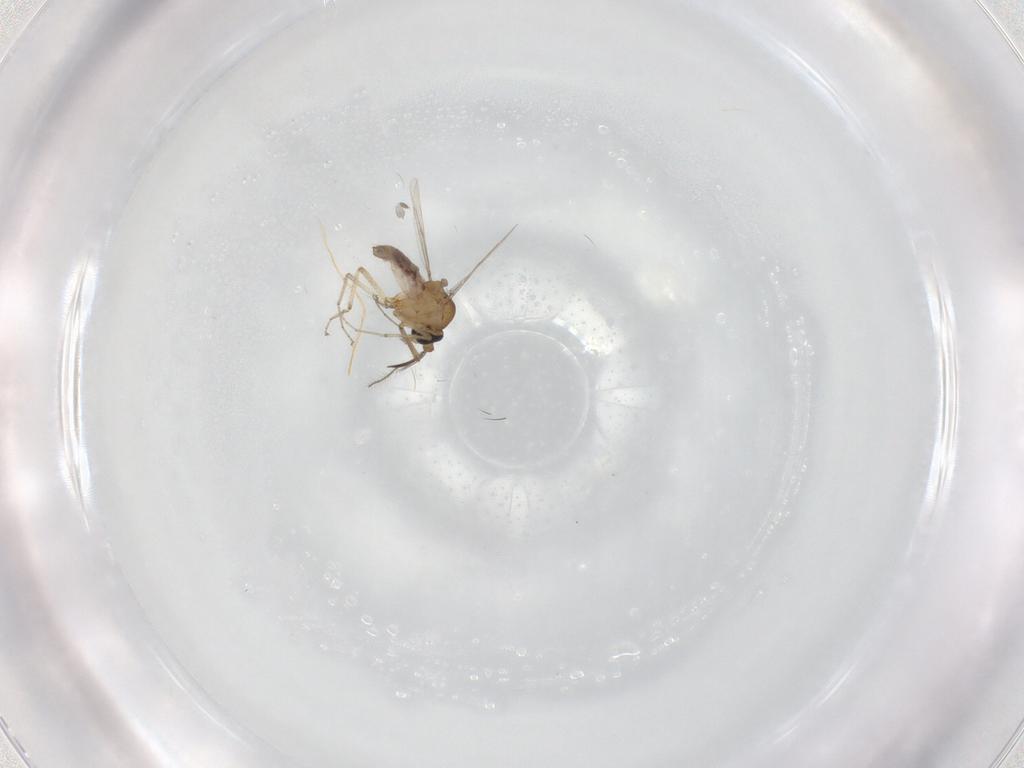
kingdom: Animalia
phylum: Arthropoda
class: Insecta
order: Diptera
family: Ceratopogonidae
